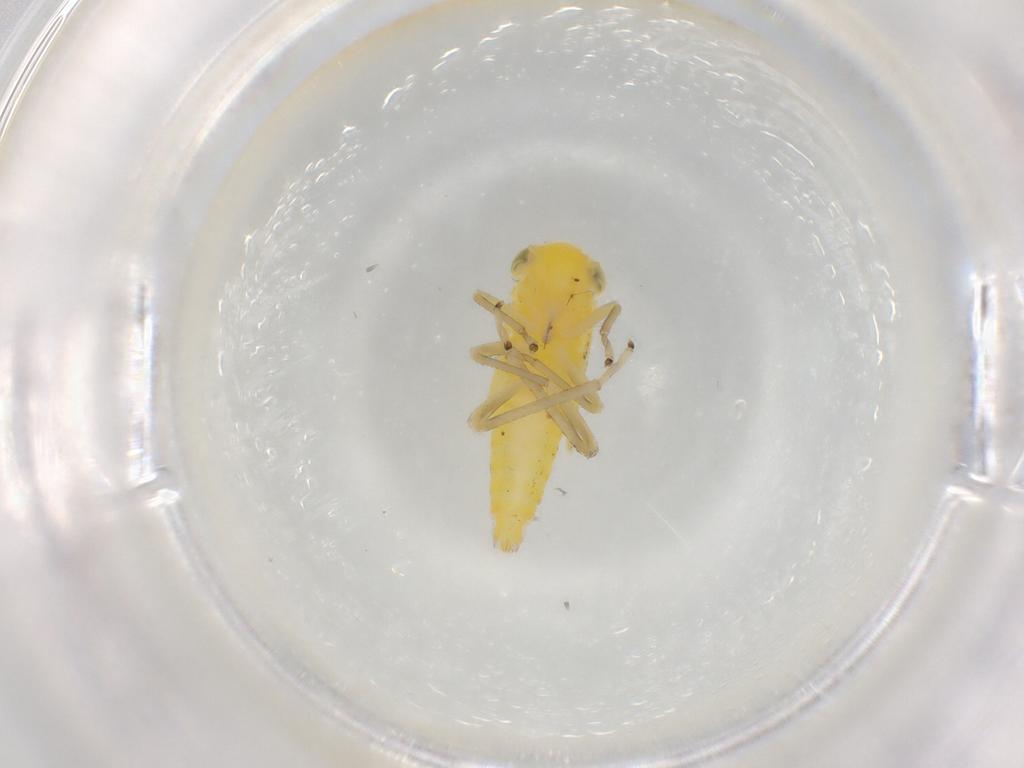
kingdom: Animalia
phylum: Arthropoda
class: Insecta
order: Hemiptera
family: Cicadellidae
